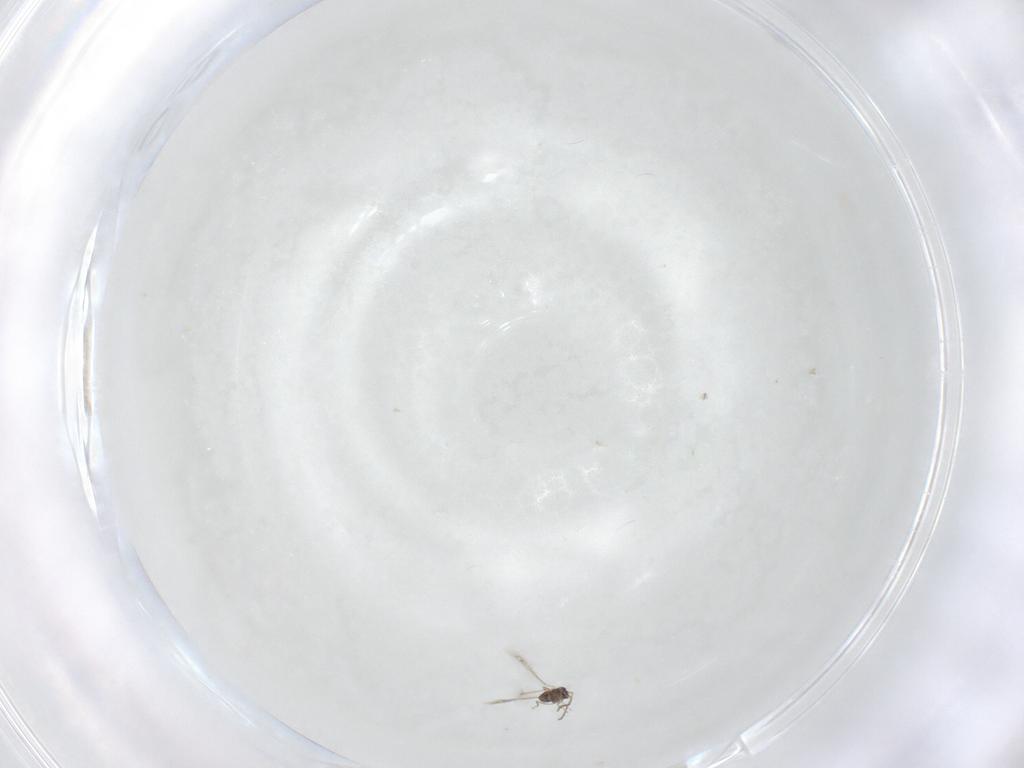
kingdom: Animalia
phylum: Arthropoda
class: Insecta
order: Hymenoptera
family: Mymaridae
